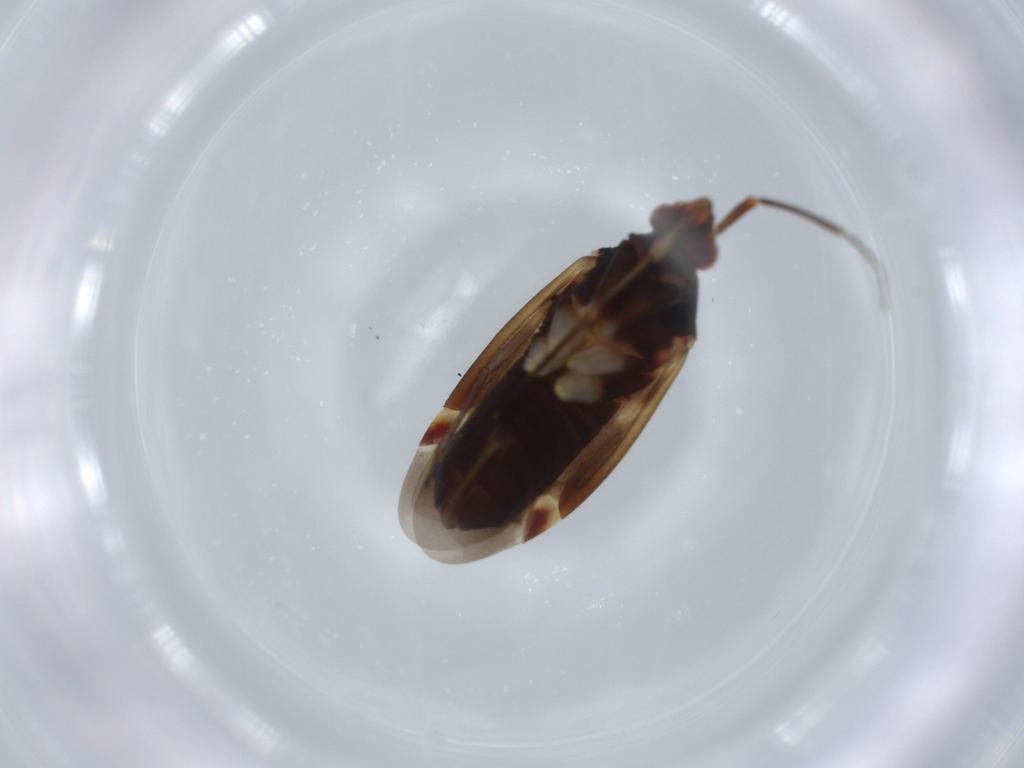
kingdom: Animalia
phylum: Arthropoda
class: Insecta
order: Hemiptera
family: Miridae
